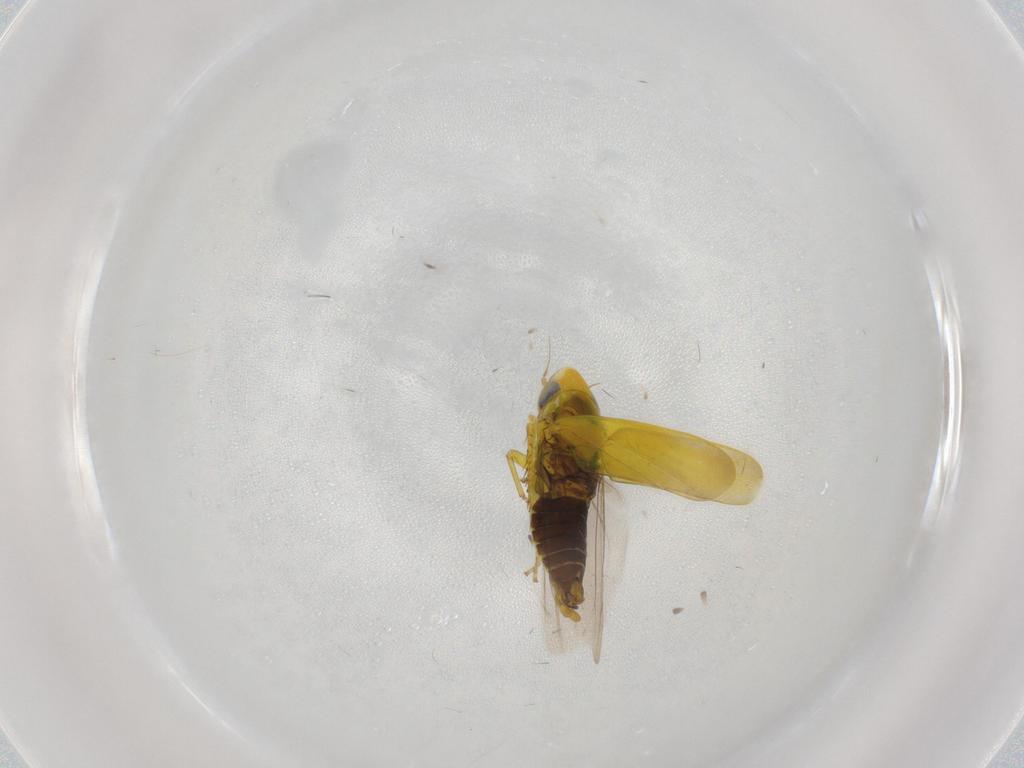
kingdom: Animalia
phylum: Arthropoda
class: Insecta
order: Hemiptera
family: Cicadellidae
